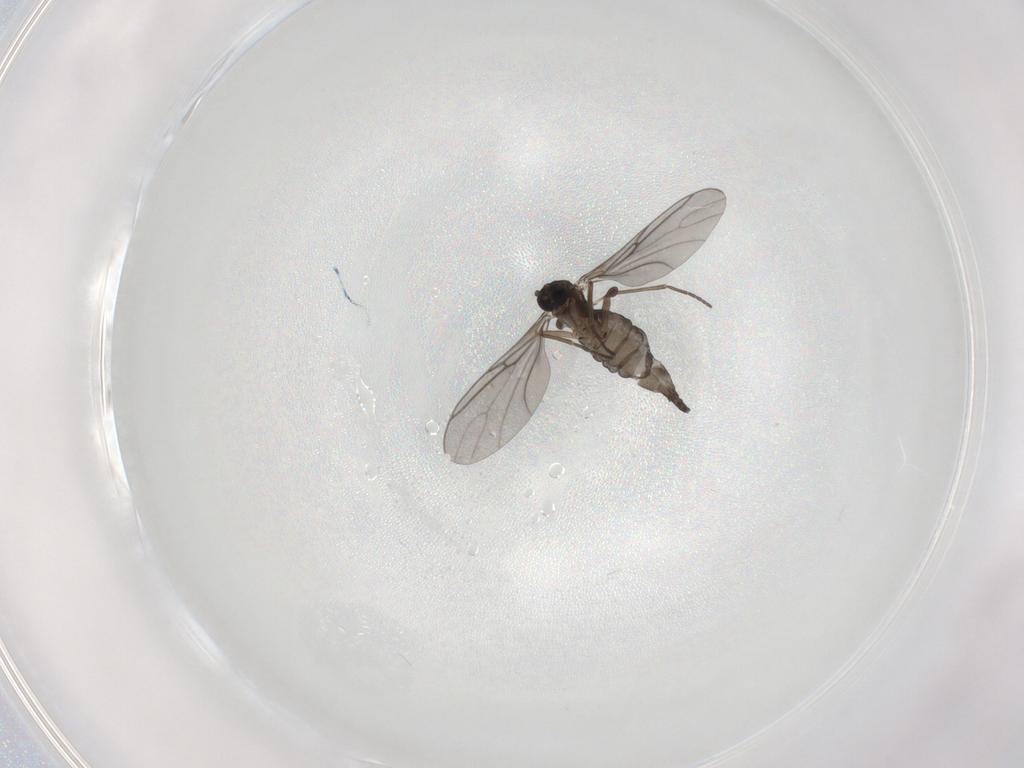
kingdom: Animalia
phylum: Arthropoda
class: Insecta
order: Diptera
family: Sciaridae
